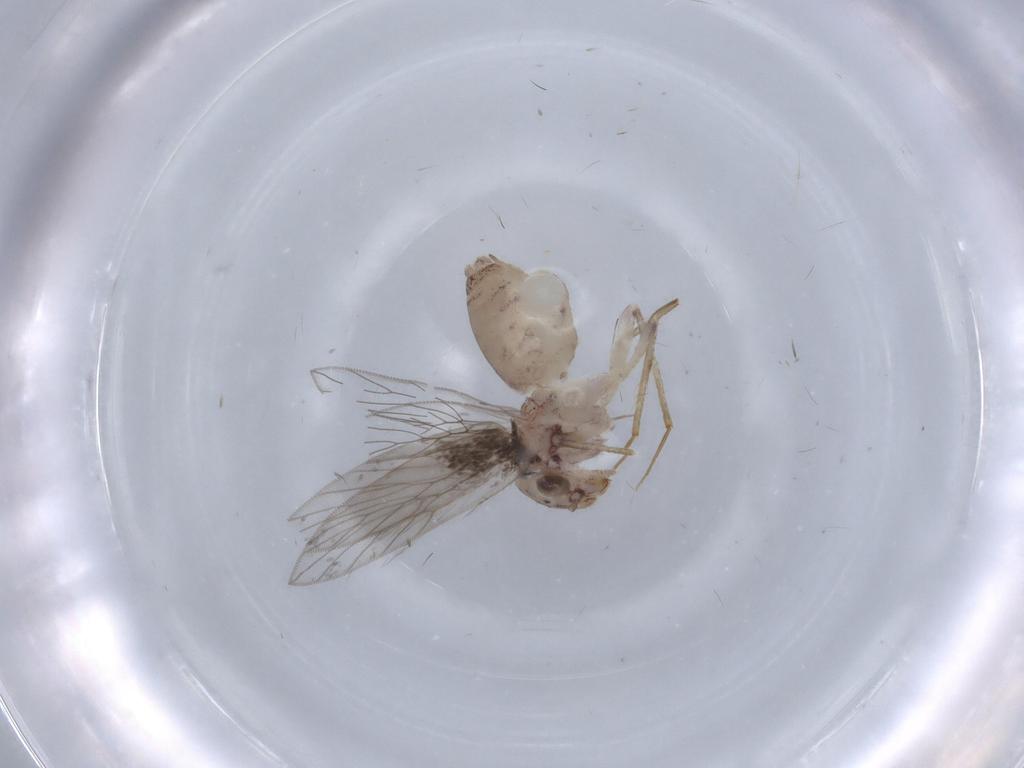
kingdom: Animalia
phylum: Arthropoda
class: Insecta
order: Psocodea
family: Lepidopsocidae
